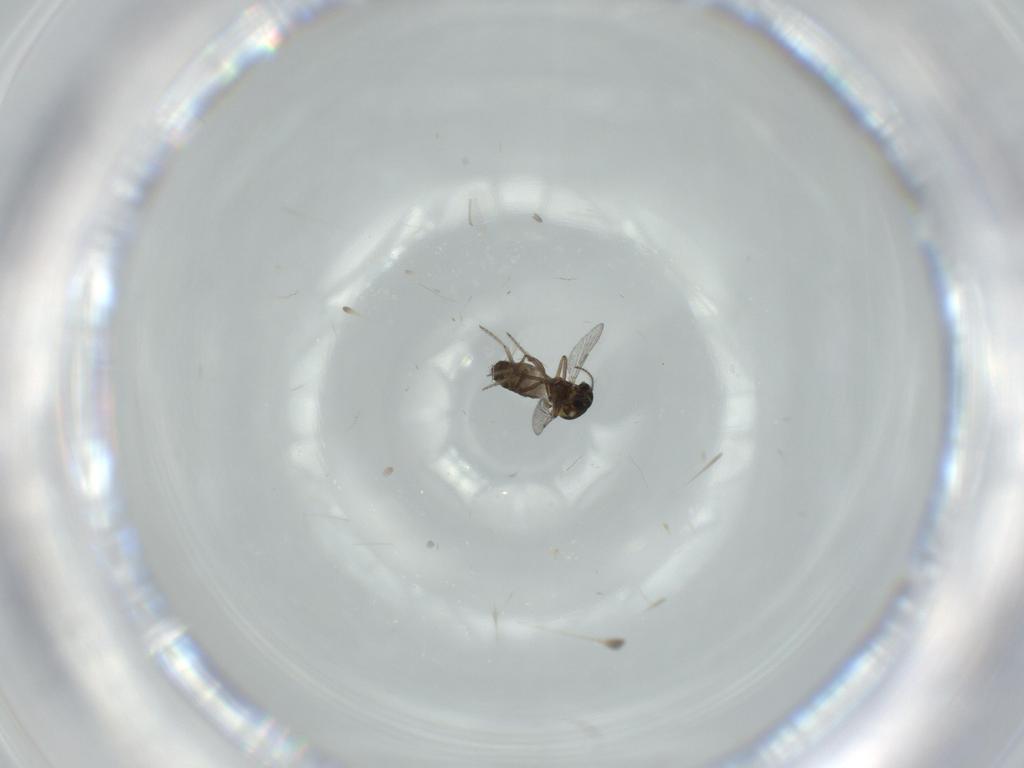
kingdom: Animalia
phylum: Arthropoda
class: Insecta
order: Diptera
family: Ceratopogonidae
